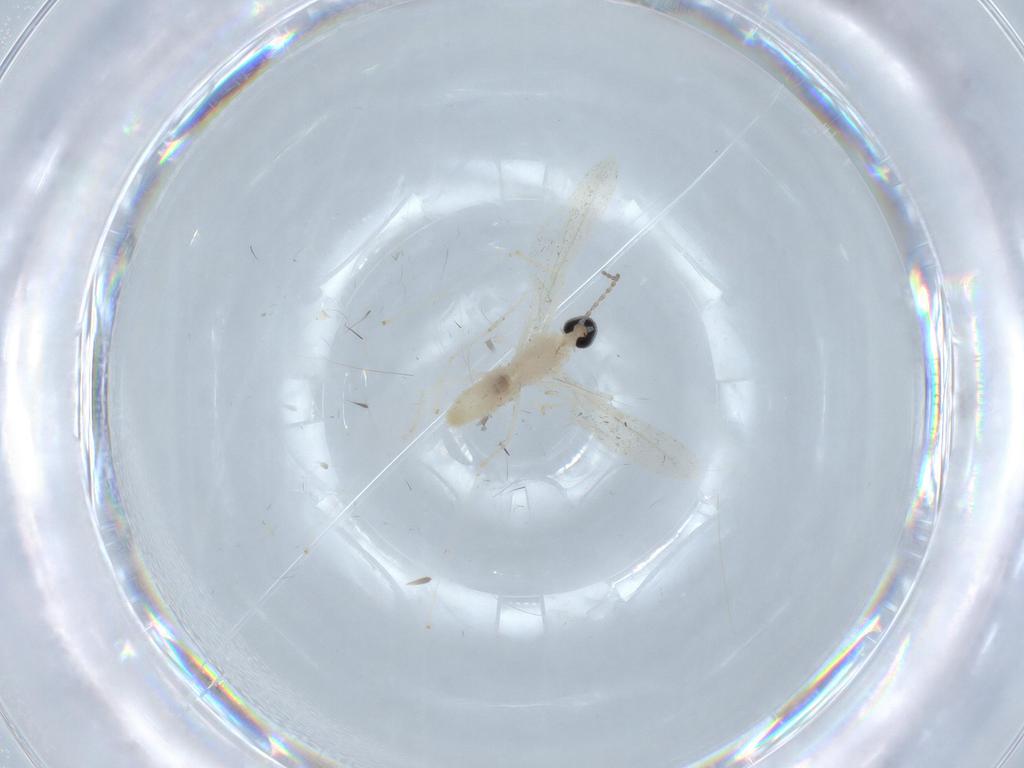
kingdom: Animalia
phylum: Arthropoda
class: Insecta
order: Diptera
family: Cecidomyiidae
